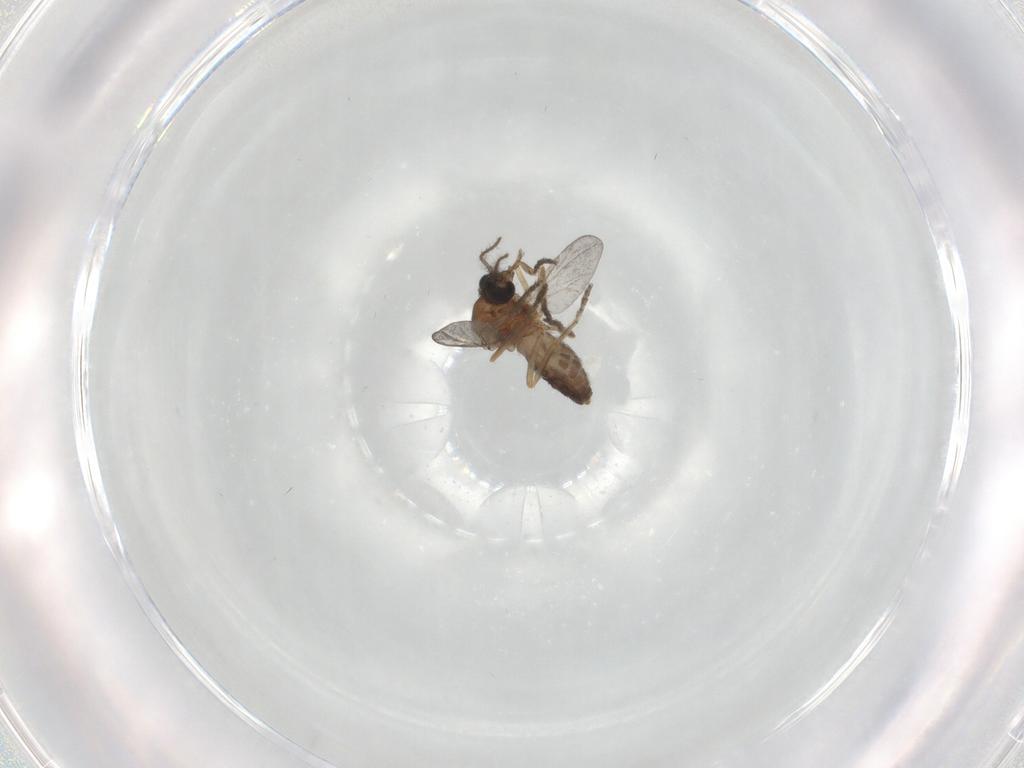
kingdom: Animalia
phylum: Arthropoda
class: Insecta
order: Diptera
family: Ceratopogonidae
